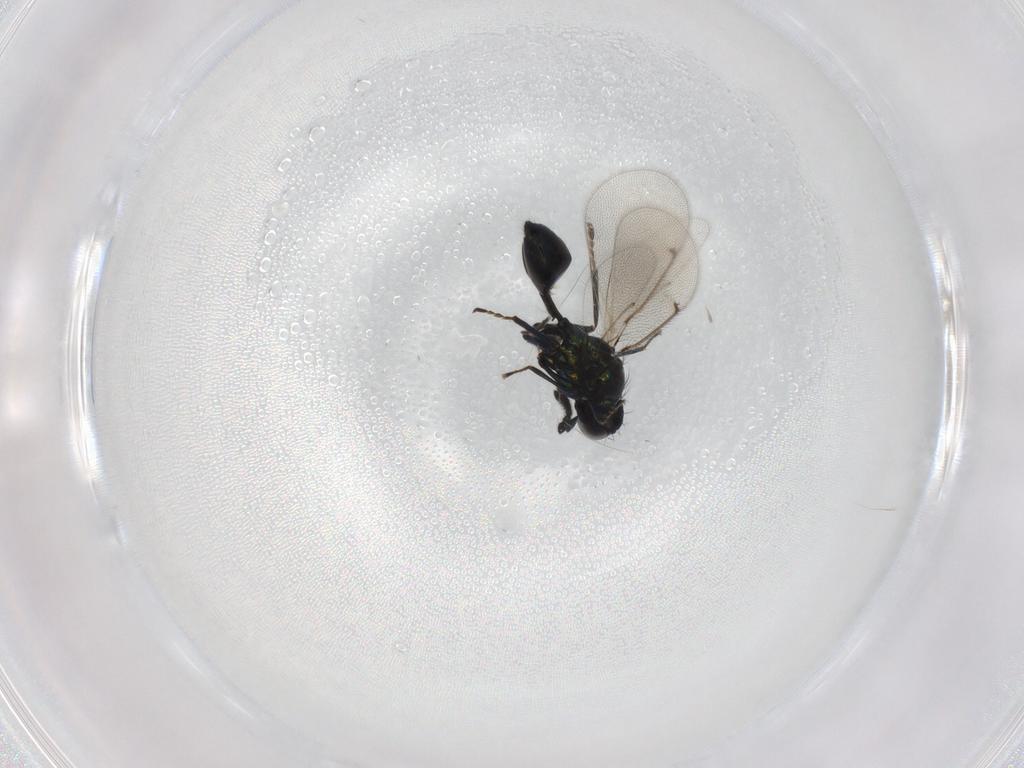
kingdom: Animalia
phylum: Arthropoda
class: Insecta
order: Hymenoptera
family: Eulophidae
